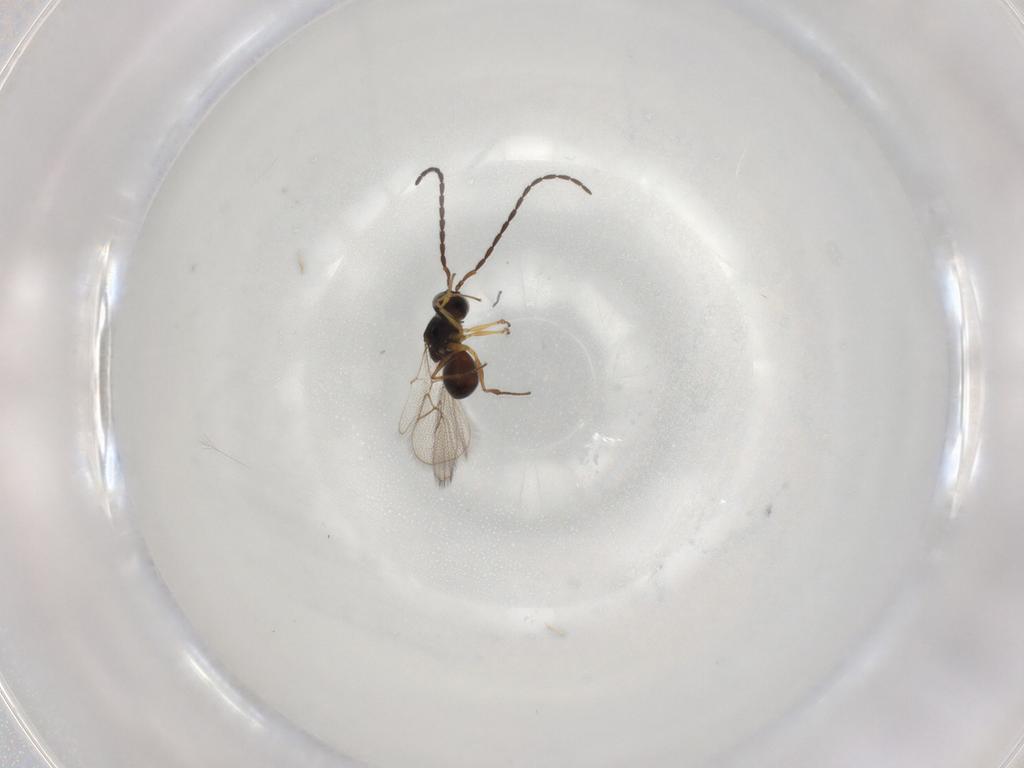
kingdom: Animalia
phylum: Arthropoda
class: Insecta
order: Hymenoptera
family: Figitidae
